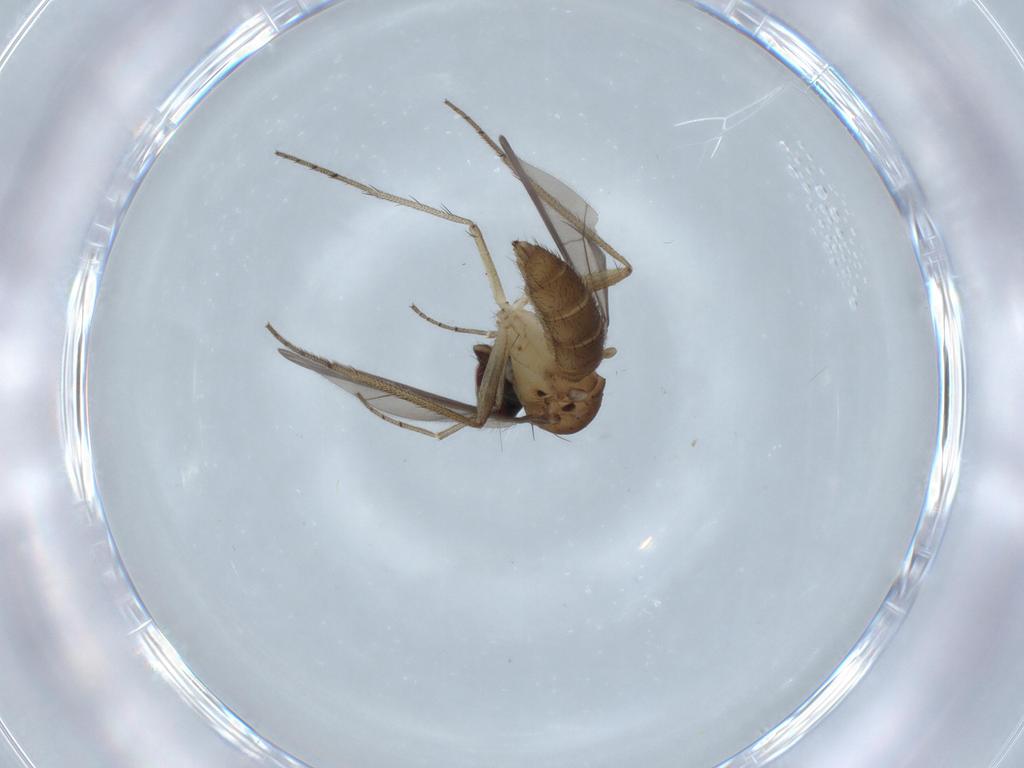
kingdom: Animalia
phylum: Arthropoda
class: Insecta
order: Diptera
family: Dolichopodidae
